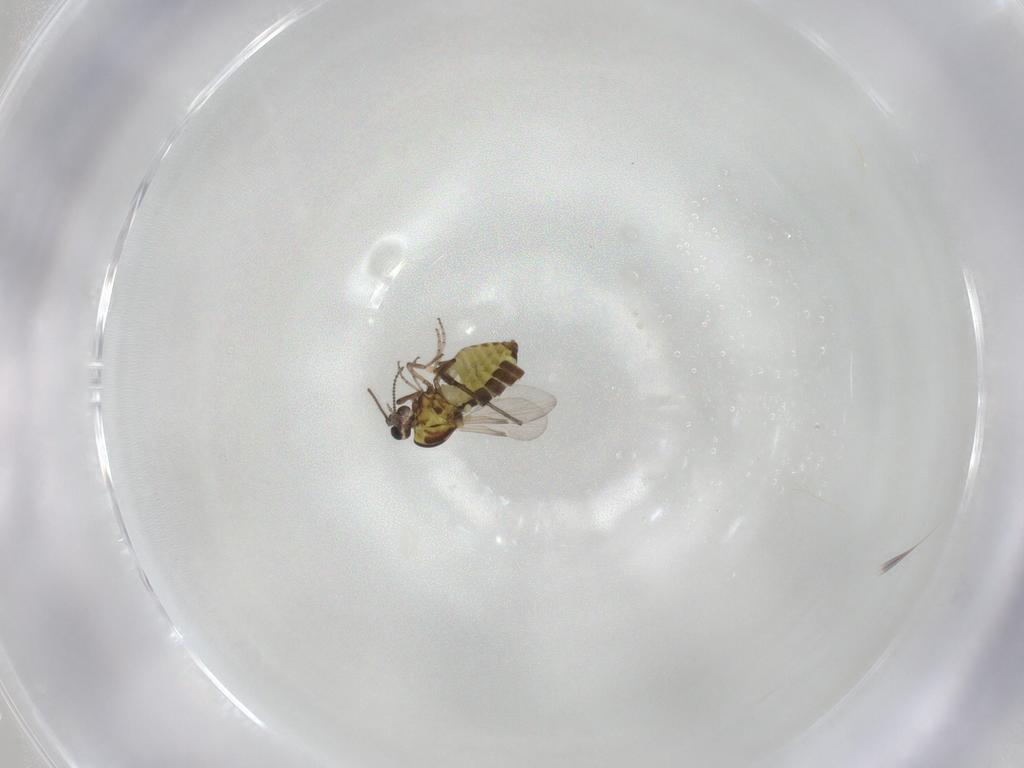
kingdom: Animalia
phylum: Arthropoda
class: Insecta
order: Diptera
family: Ceratopogonidae
